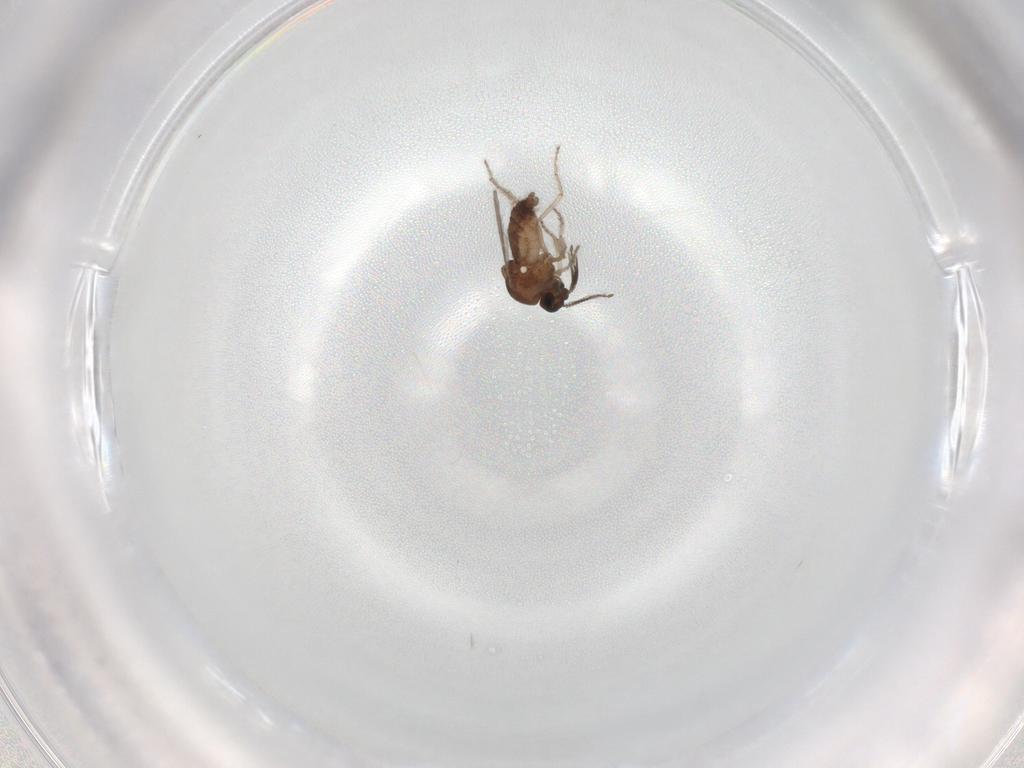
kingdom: Animalia
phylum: Arthropoda
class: Insecta
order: Diptera
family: Ceratopogonidae
